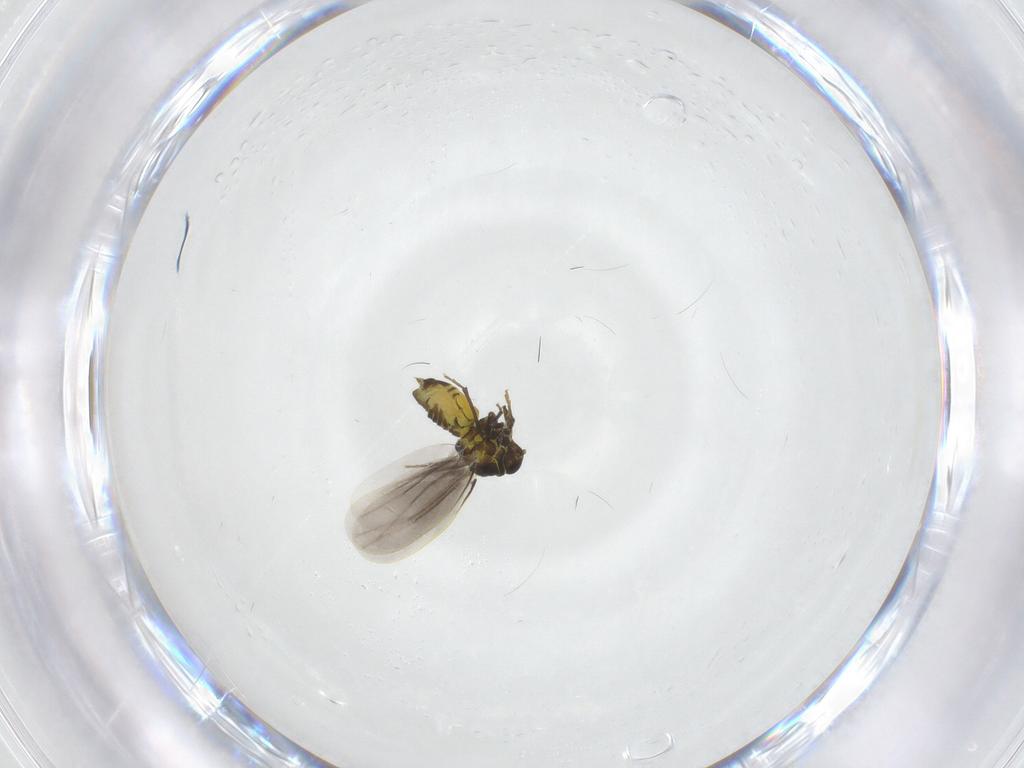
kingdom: Animalia
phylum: Arthropoda
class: Insecta
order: Hemiptera
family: Aleyrodidae
